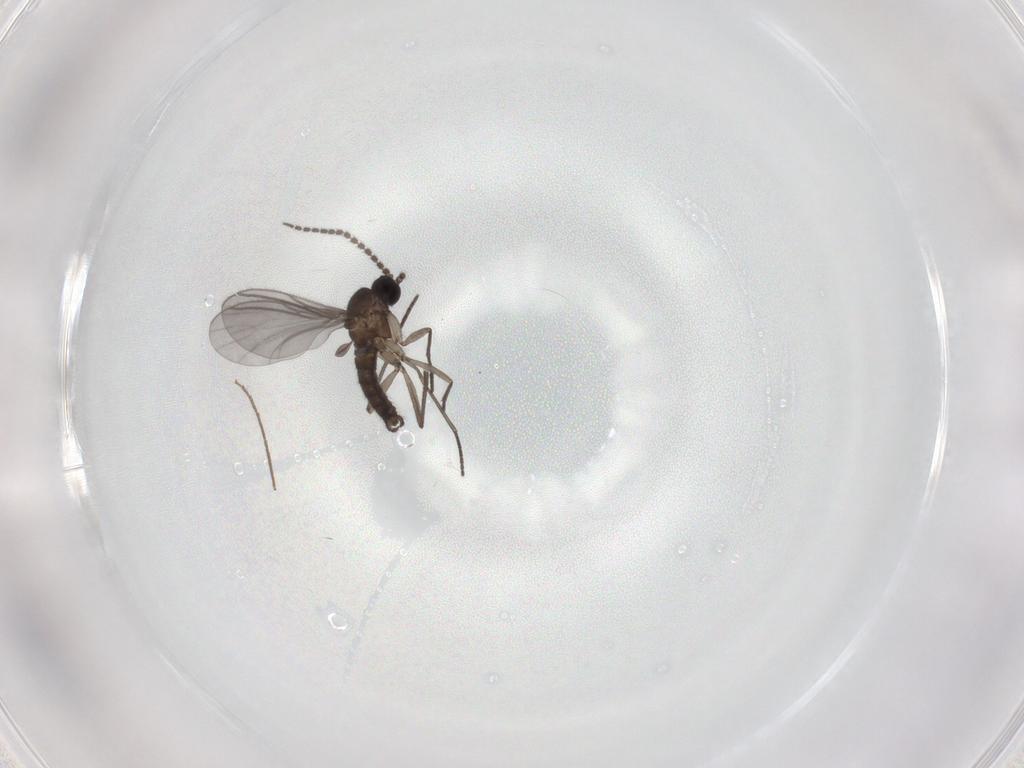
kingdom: Animalia
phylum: Arthropoda
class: Insecta
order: Diptera
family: Chironomidae
